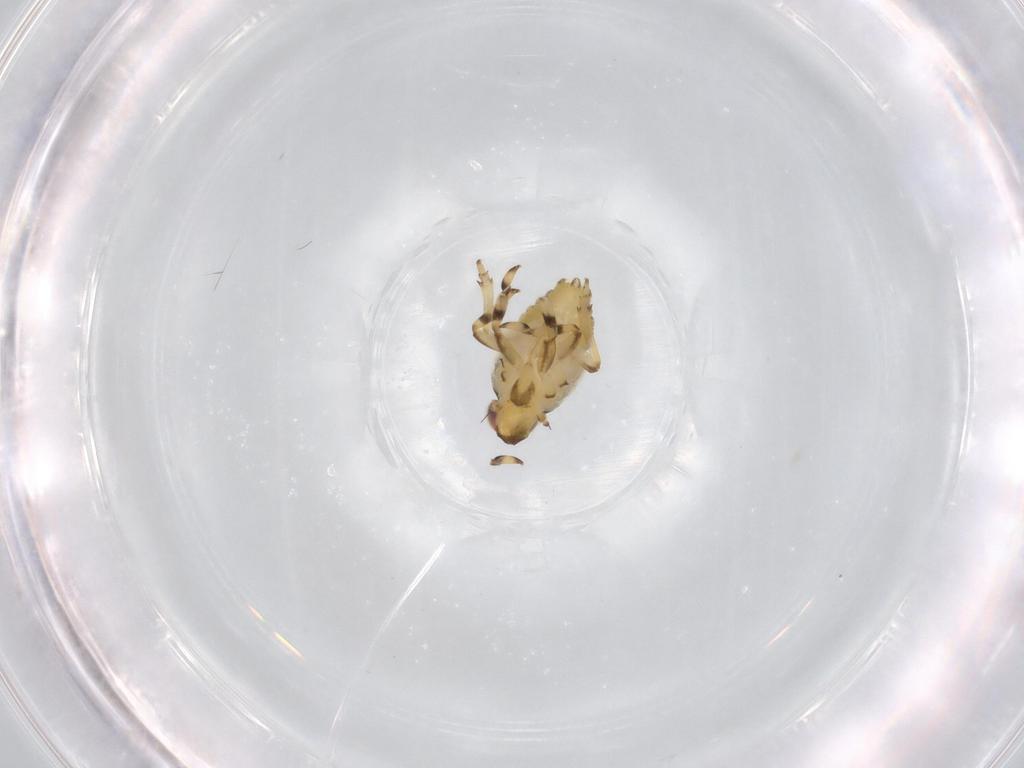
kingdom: Animalia
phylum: Arthropoda
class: Insecta
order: Hemiptera
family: Issidae
